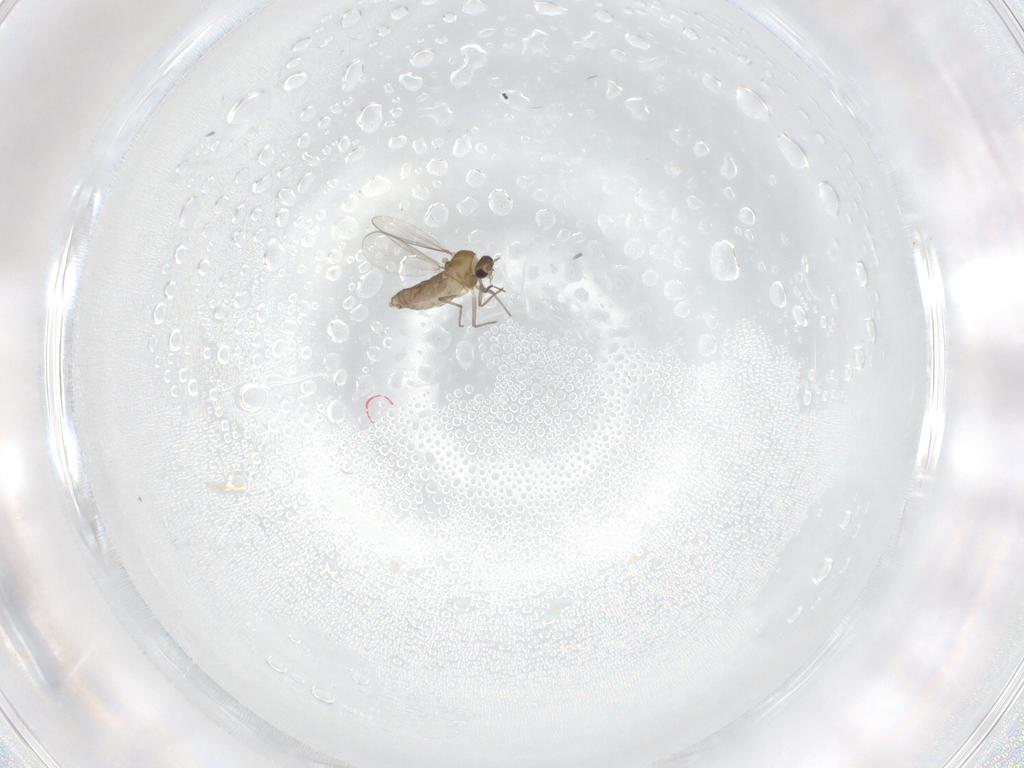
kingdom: Animalia
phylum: Arthropoda
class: Insecta
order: Diptera
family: Chironomidae
